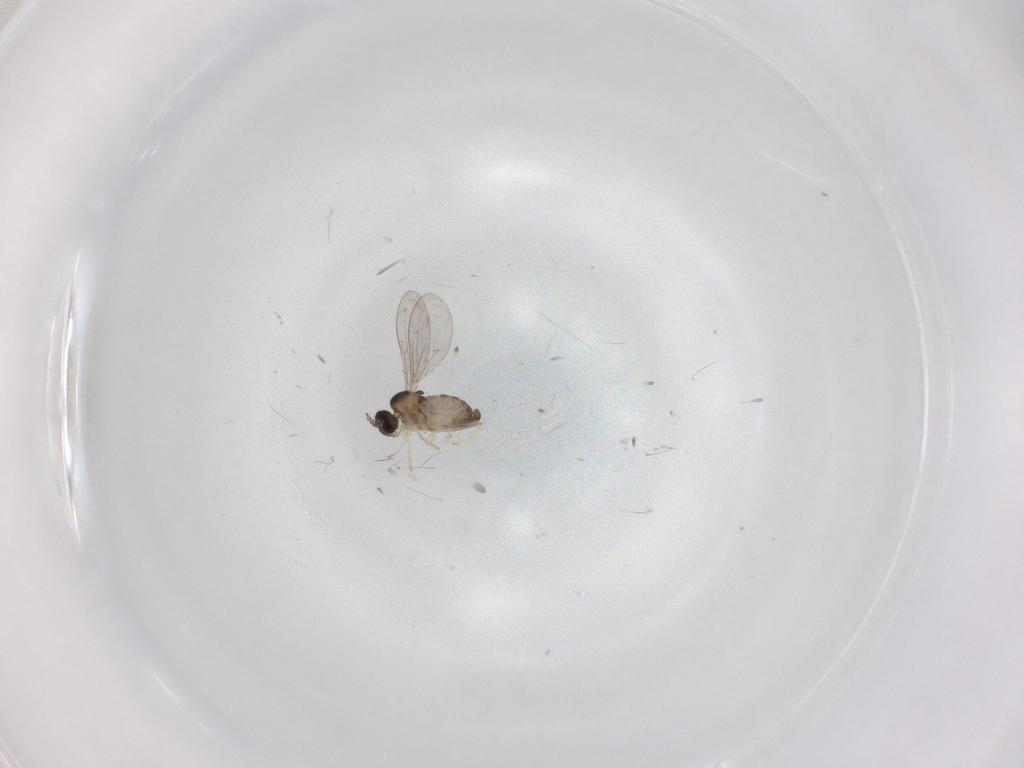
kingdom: Animalia
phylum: Arthropoda
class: Insecta
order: Diptera
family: Cecidomyiidae
